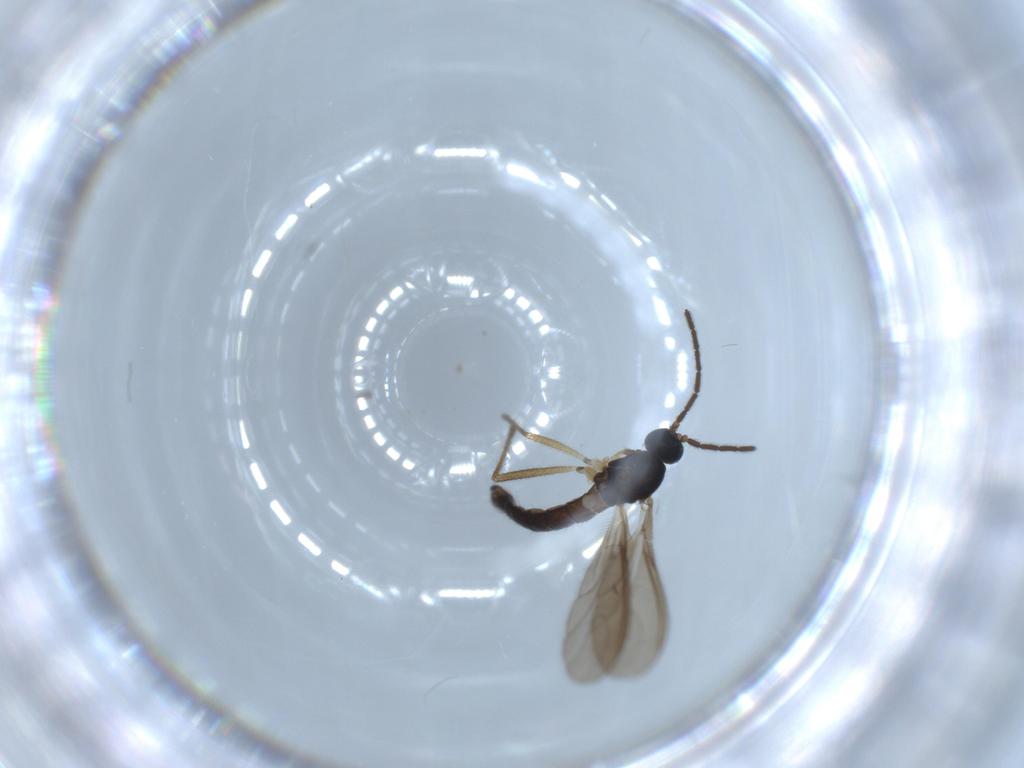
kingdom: Animalia
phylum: Arthropoda
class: Insecta
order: Diptera
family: Sciaridae
